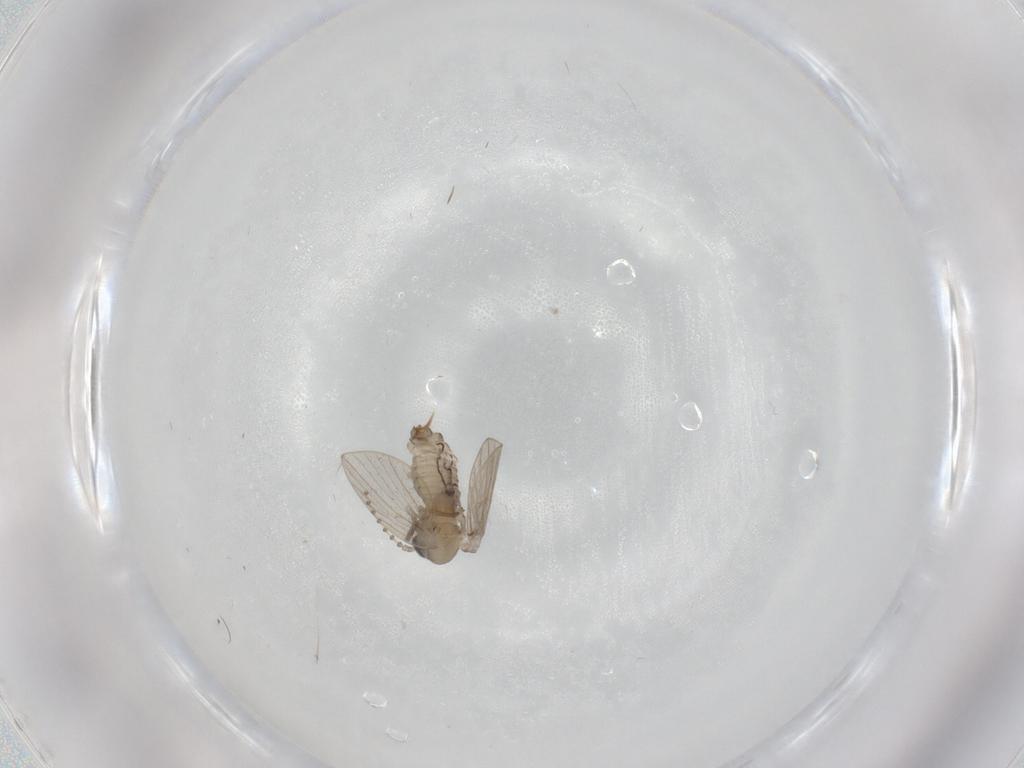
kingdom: Animalia
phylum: Arthropoda
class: Insecta
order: Diptera
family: Psychodidae
